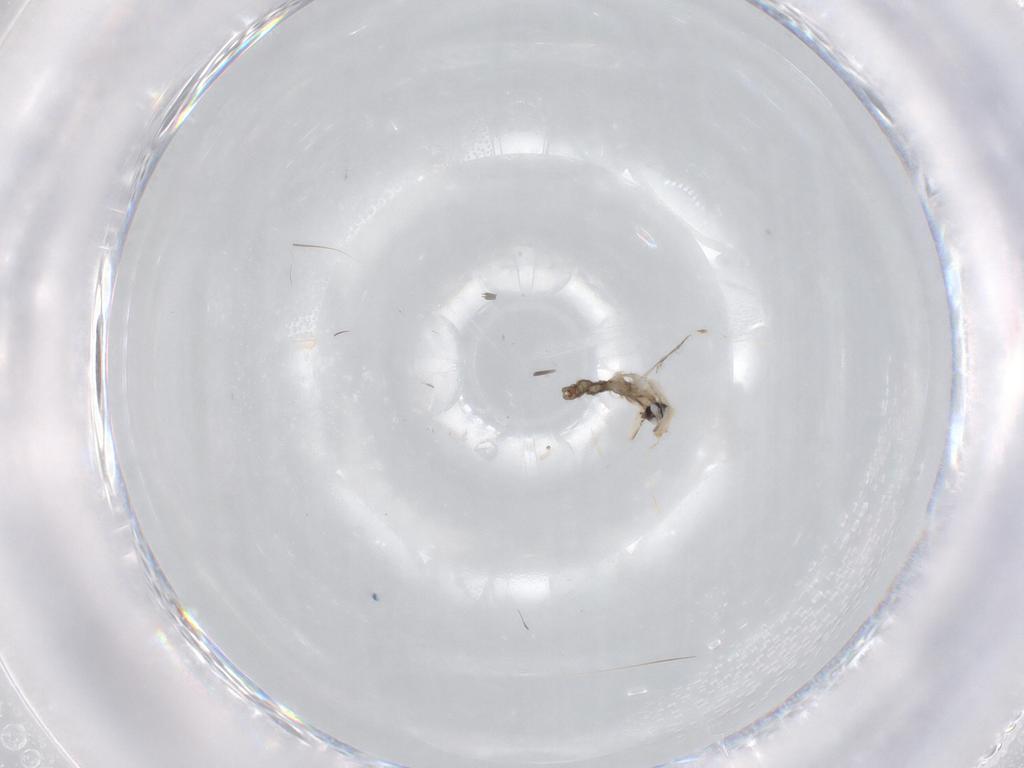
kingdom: Animalia
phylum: Arthropoda
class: Insecta
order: Diptera
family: Cecidomyiidae
